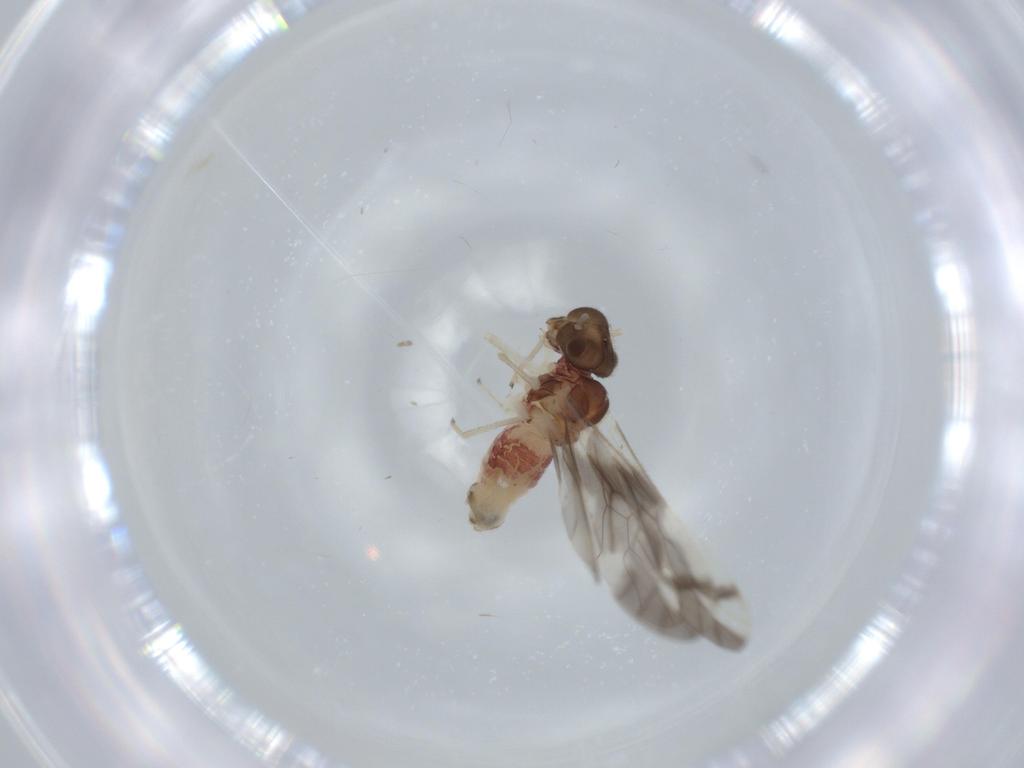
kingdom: Animalia
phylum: Arthropoda
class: Insecta
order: Psocodea
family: Caeciliusidae
